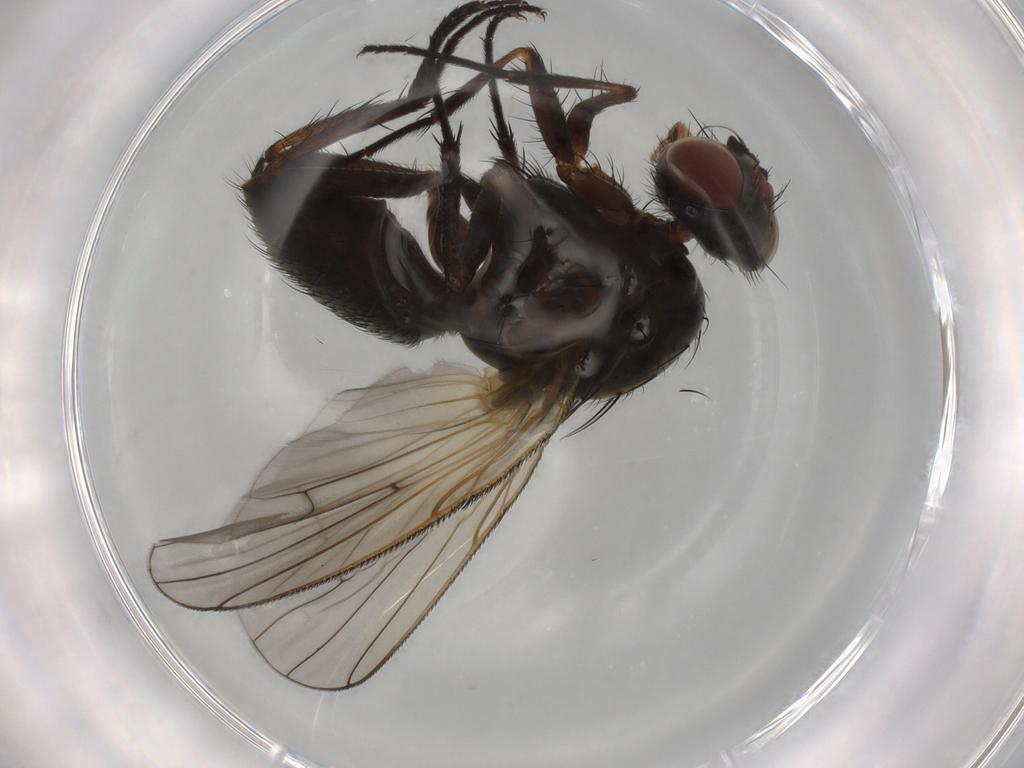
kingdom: Animalia
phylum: Arthropoda
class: Insecta
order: Diptera
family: Anthomyiidae
